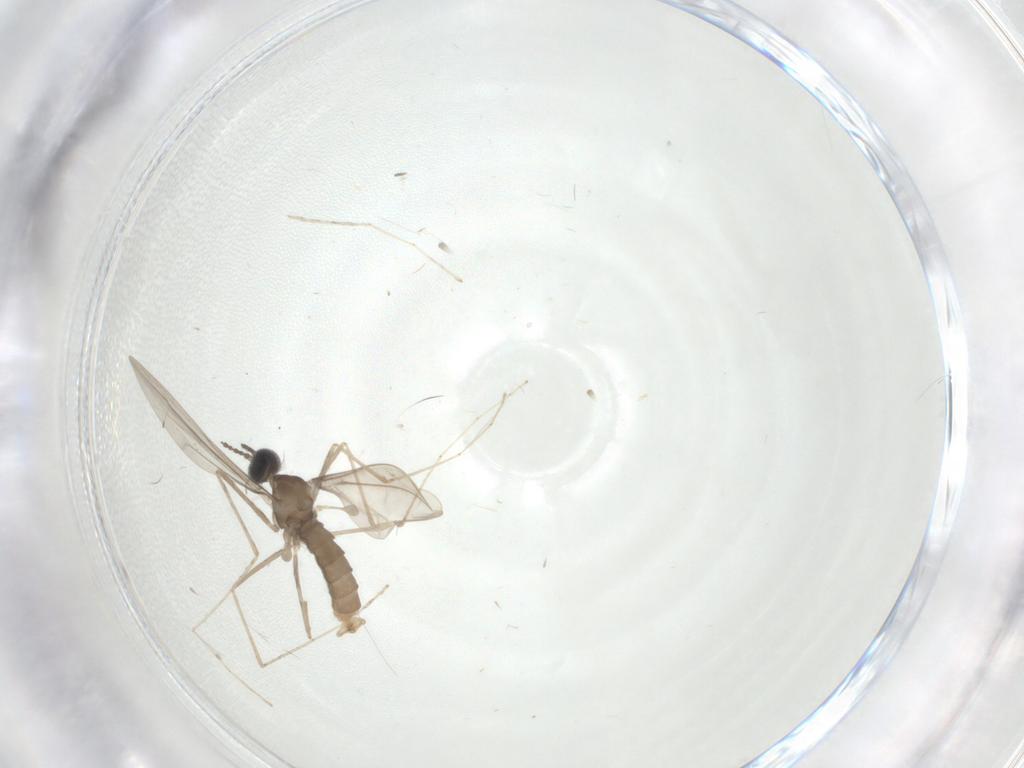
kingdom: Animalia
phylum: Arthropoda
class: Insecta
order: Diptera
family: Cecidomyiidae
